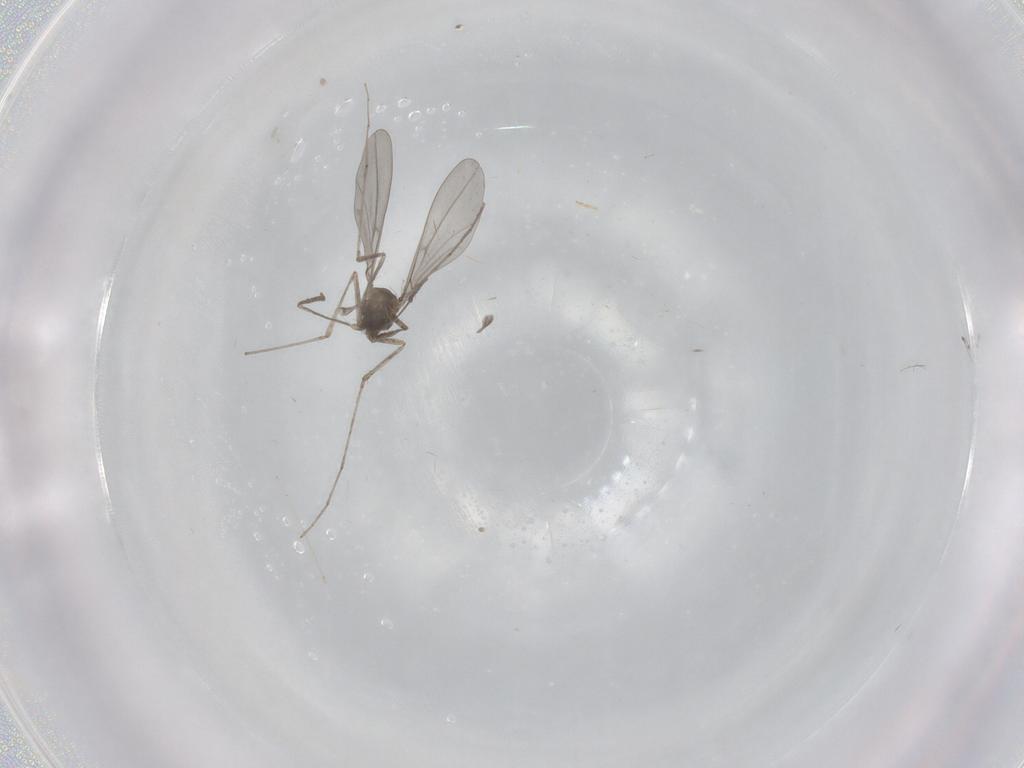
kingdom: Animalia
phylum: Arthropoda
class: Insecta
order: Diptera
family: Cecidomyiidae
